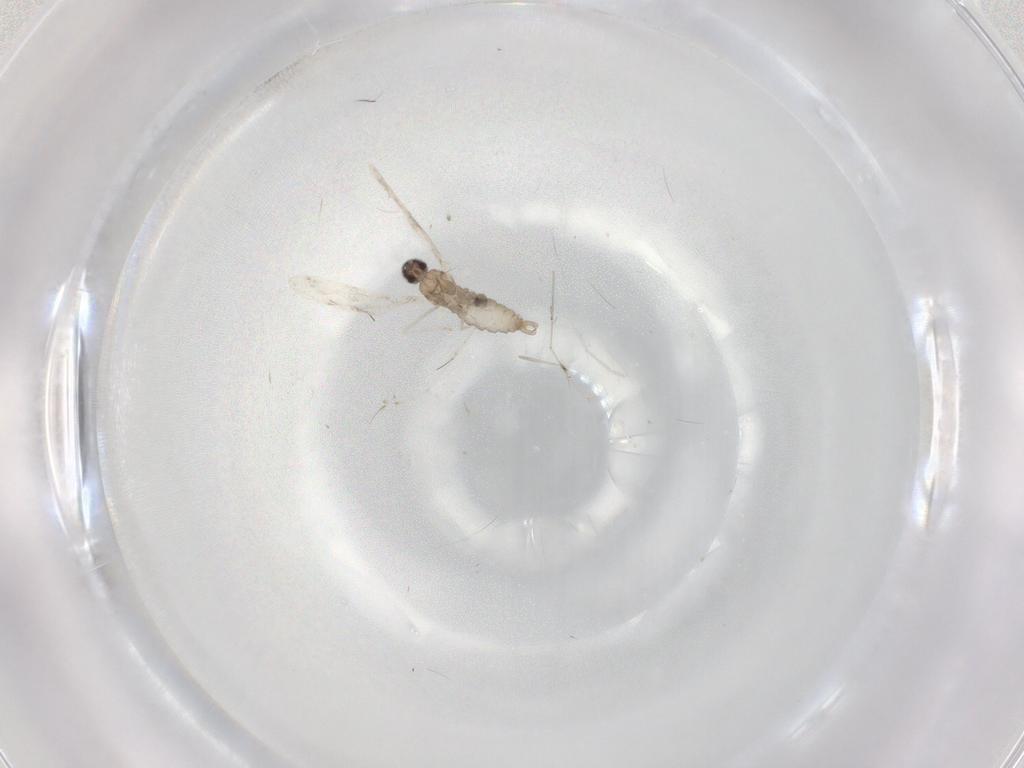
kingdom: Animalia
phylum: Arthropoda
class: Insecta
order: Diptera
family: Cecidomyiidae
